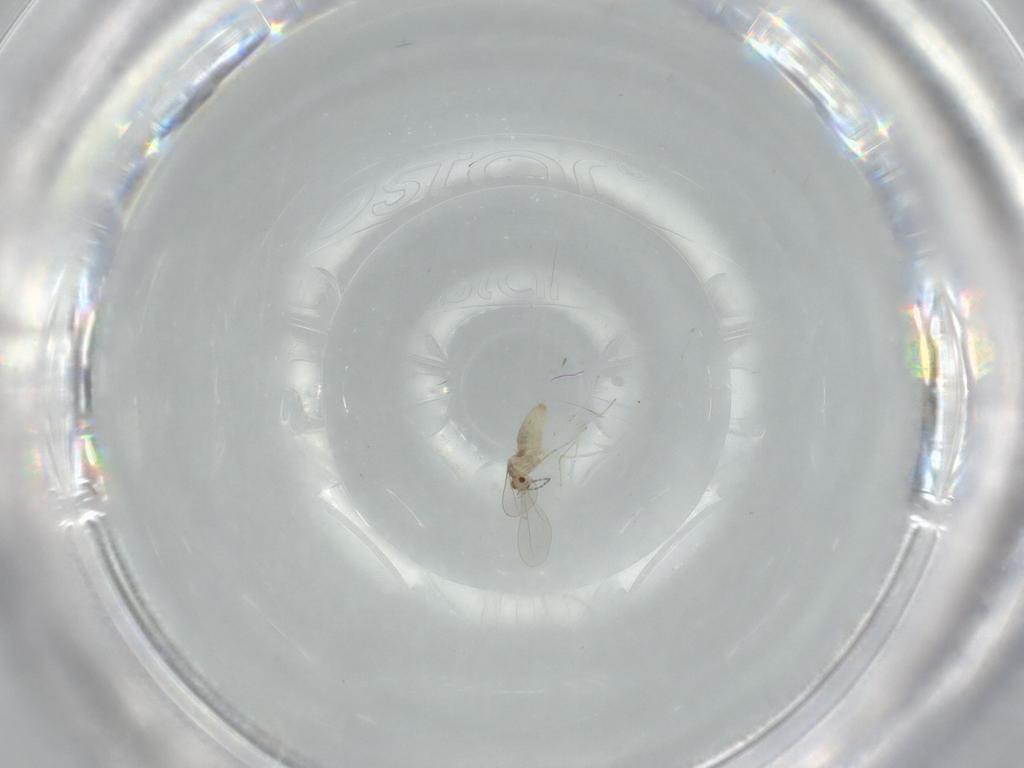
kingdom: Animalia
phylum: Arthropoda
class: Insecta
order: Diptera
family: Cecidomyiidae
